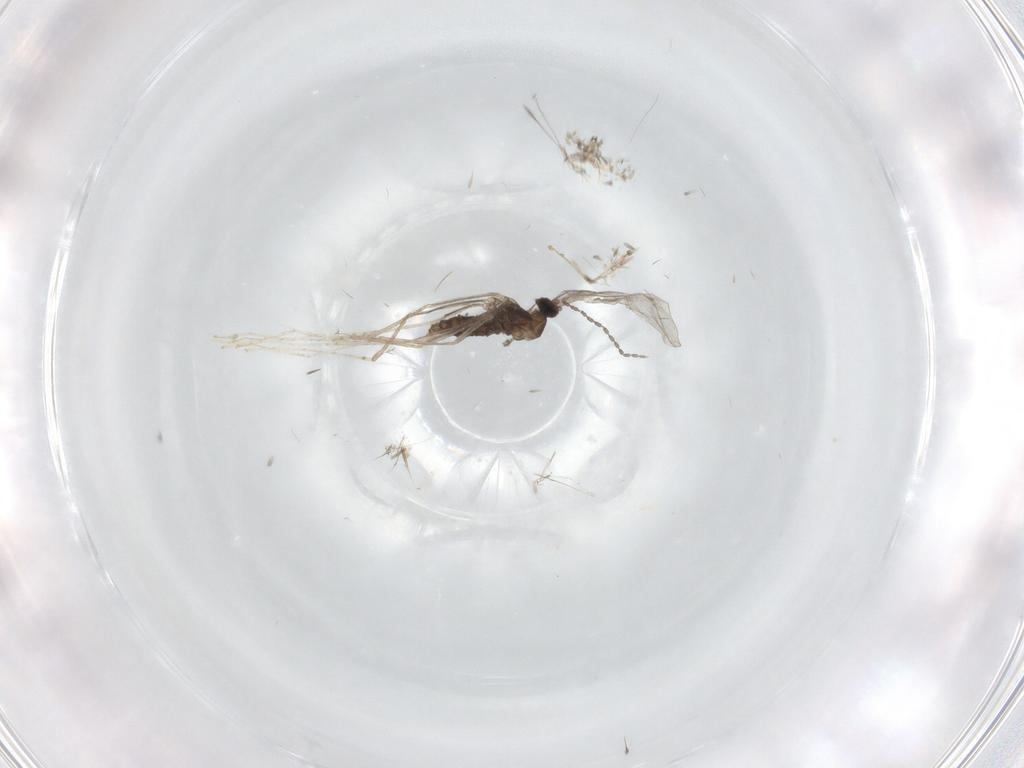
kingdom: Animalia
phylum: Arthropoda
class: Insecta
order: Diptera
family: Cecidomyiidae
